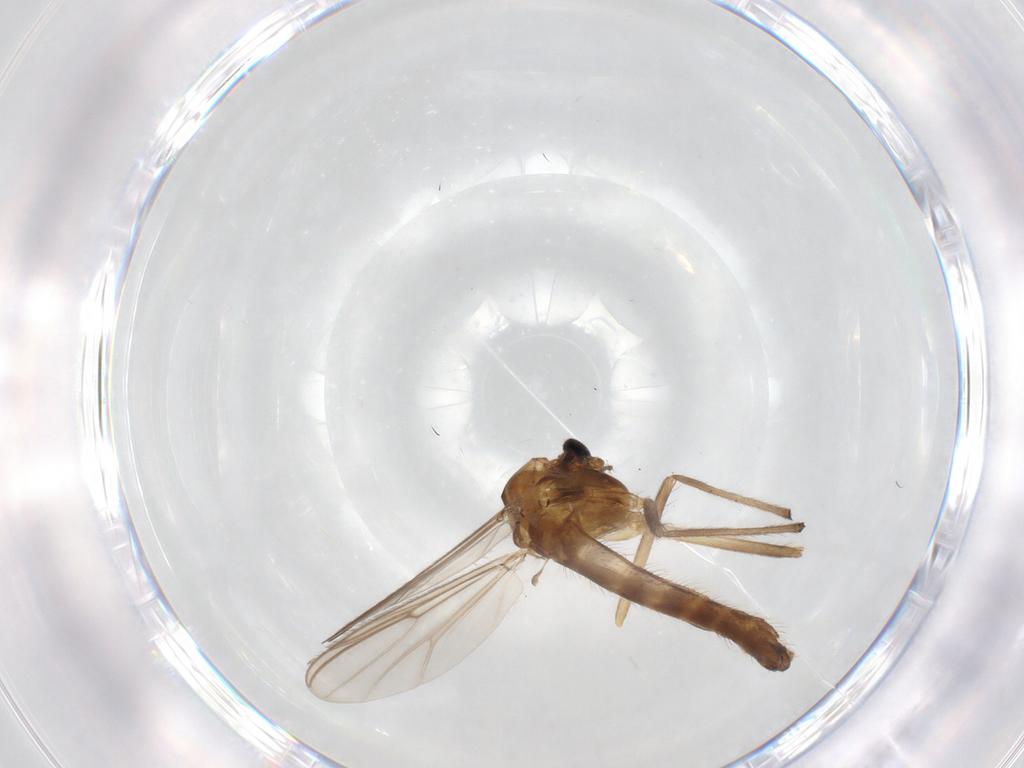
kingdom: Animalia
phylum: Arthropoda
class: Insecta
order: Diptera
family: Chironomidae
